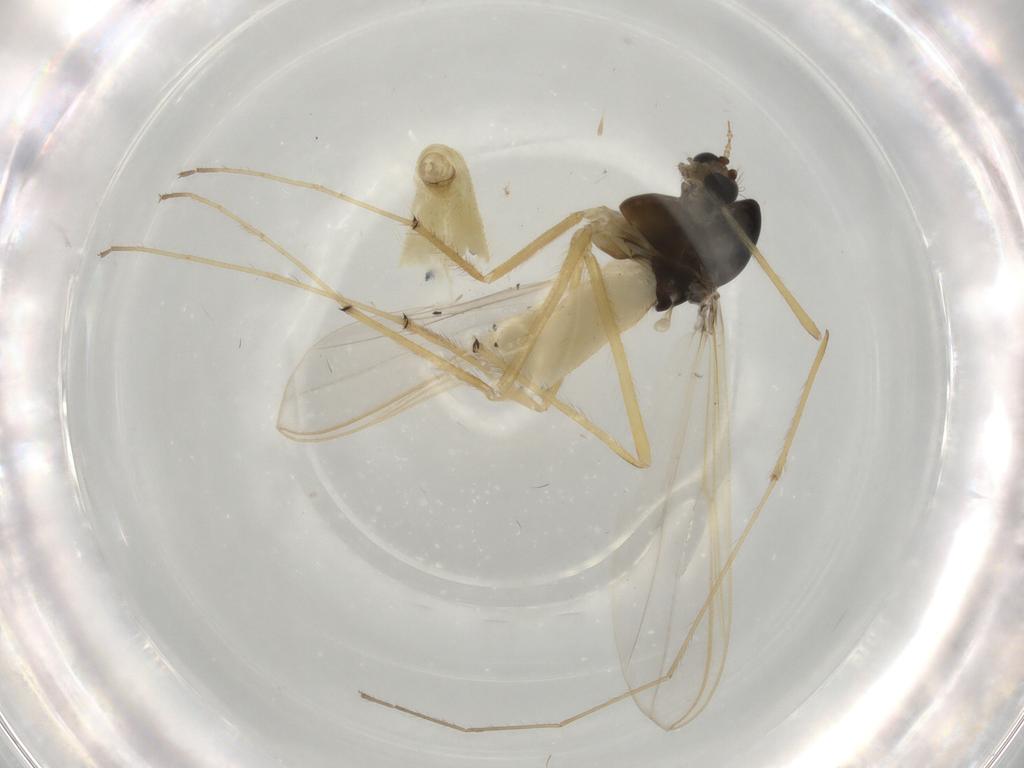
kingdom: Animalia
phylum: Arthropoda
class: Insecta
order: Diptera
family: Chironomidae
